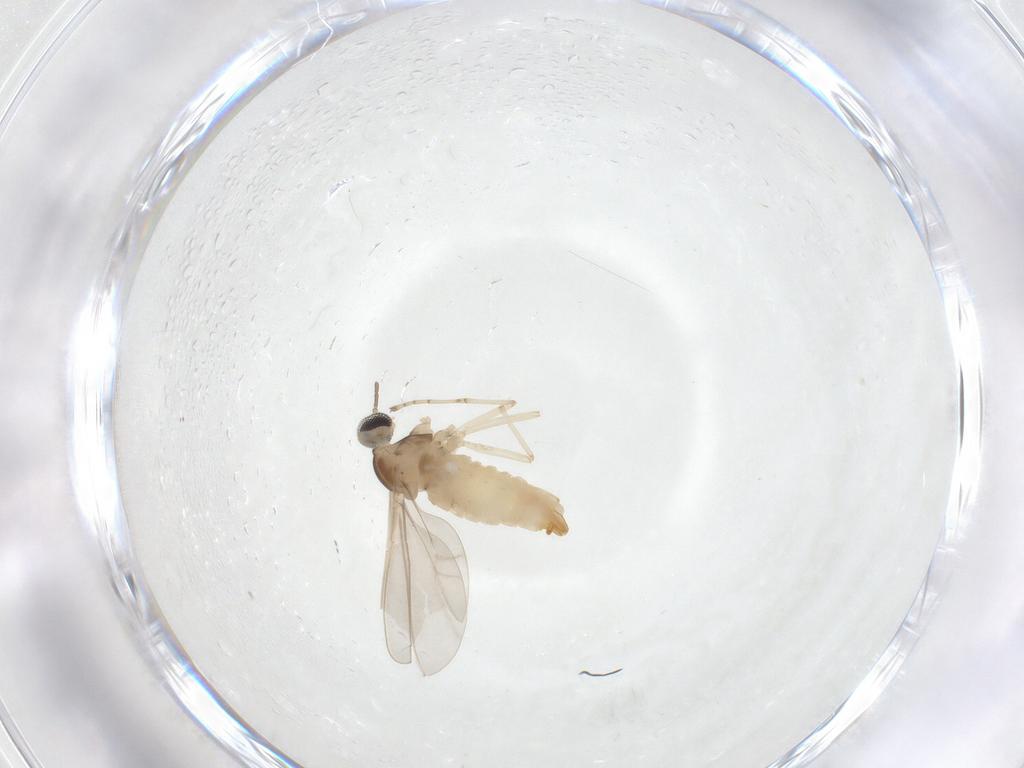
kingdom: Animalia
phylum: Arthropoda
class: Insecta
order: Diptera
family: Cecidomyiidae
